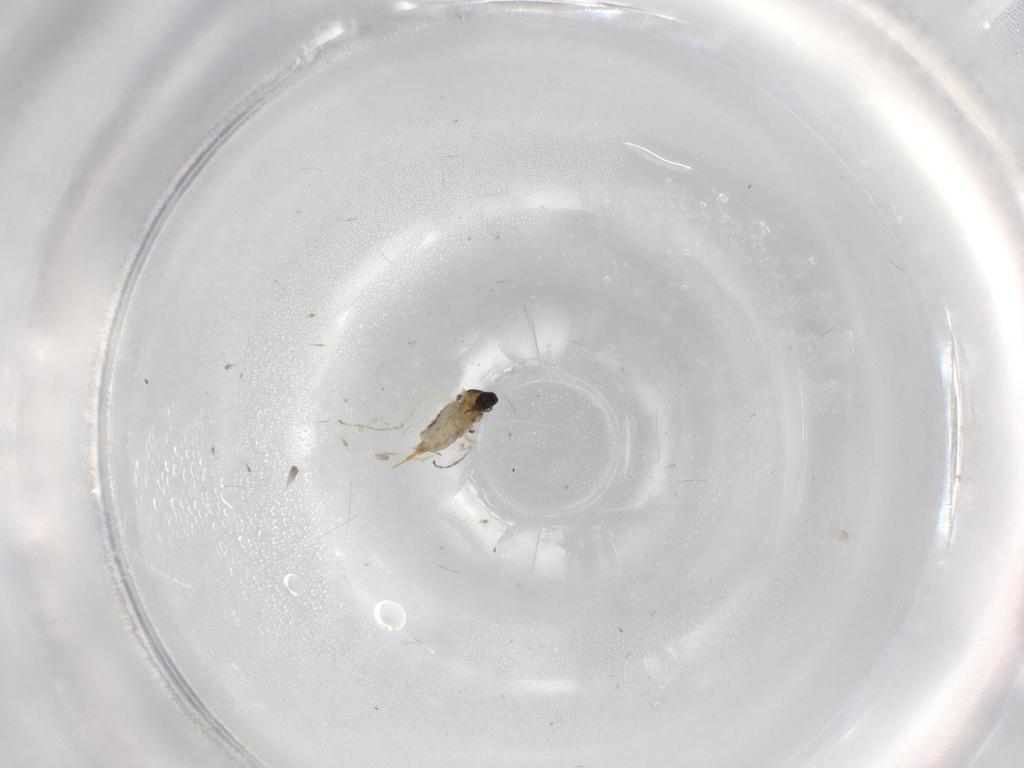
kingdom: Animalia
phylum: Arthropoda
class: Insecta
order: Diptera
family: Cecidomyiidae
